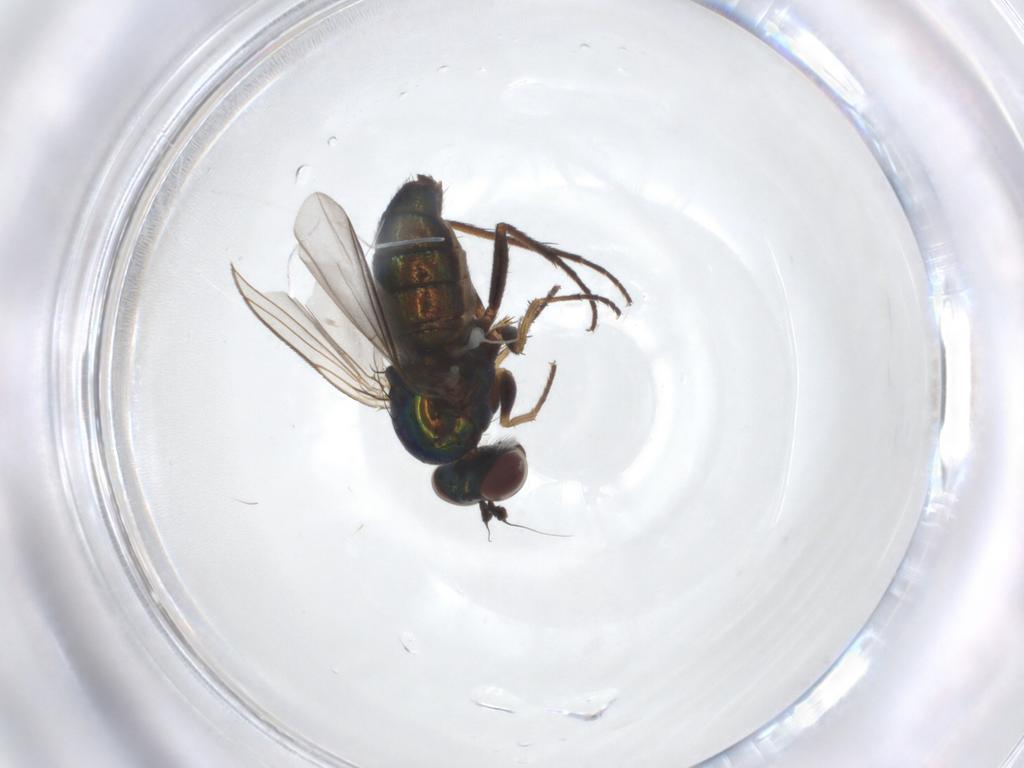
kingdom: Animalia
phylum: Arthropoda
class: Insecta
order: Diptera
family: Dolichopodidae
